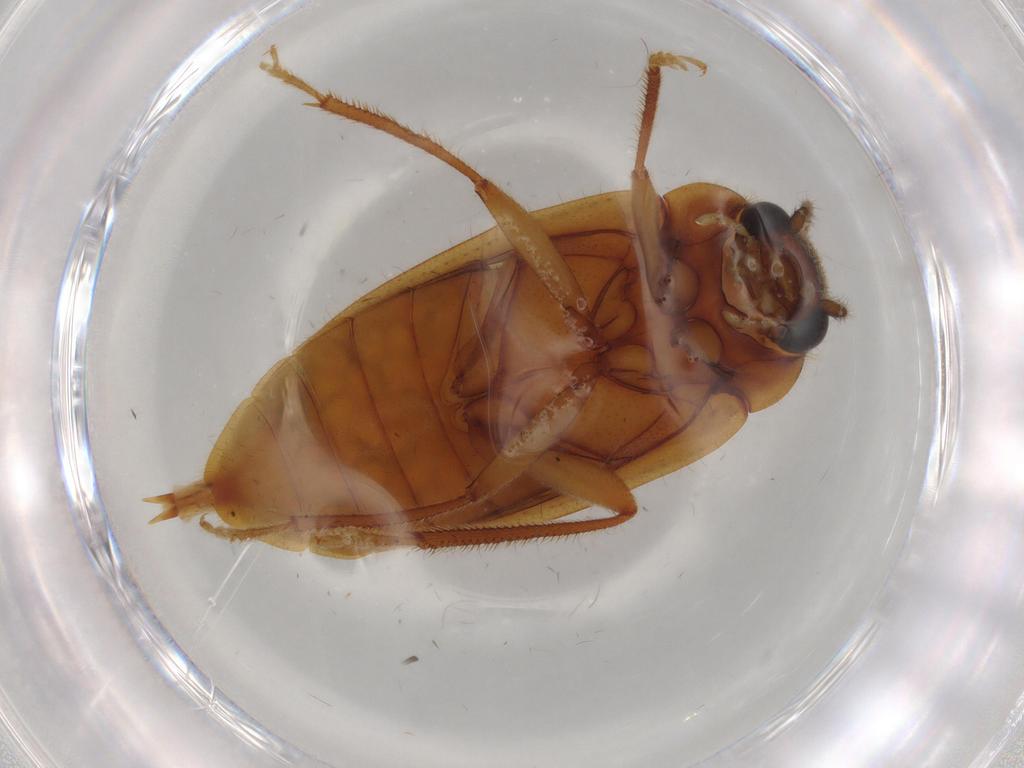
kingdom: Animalia
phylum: Arthropoda
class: Insecta
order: Coleoptera
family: Ptilodactylidae
